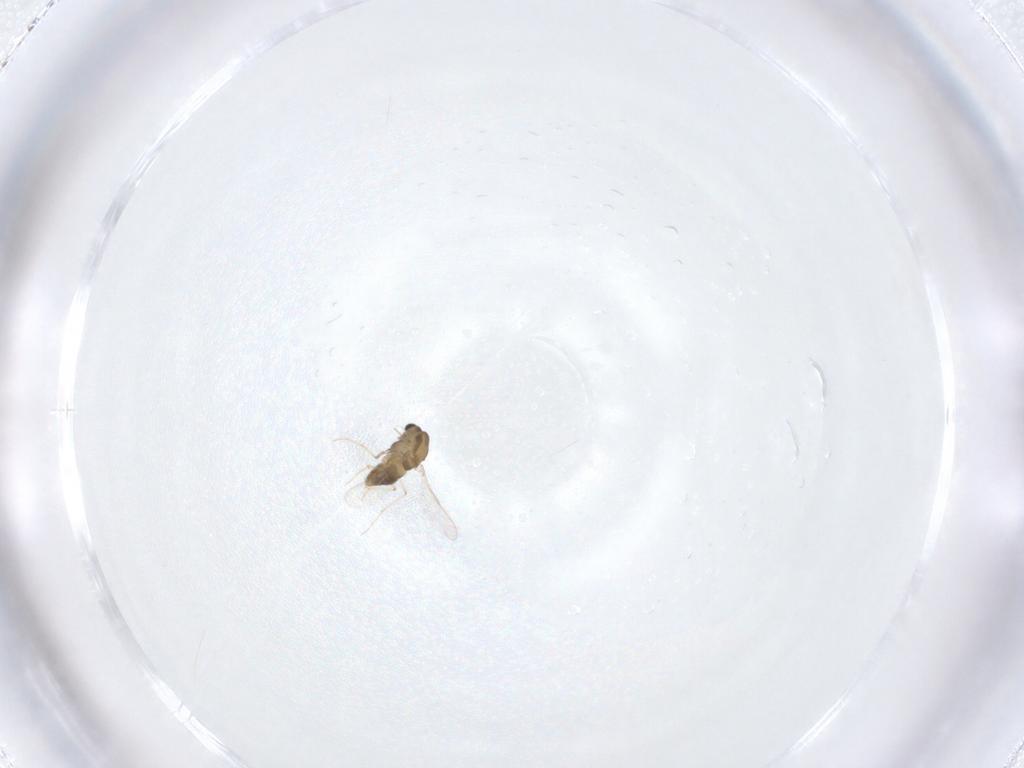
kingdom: Animalia
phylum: Arthropoda
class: Insecta
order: Diptera
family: Chironomidae
